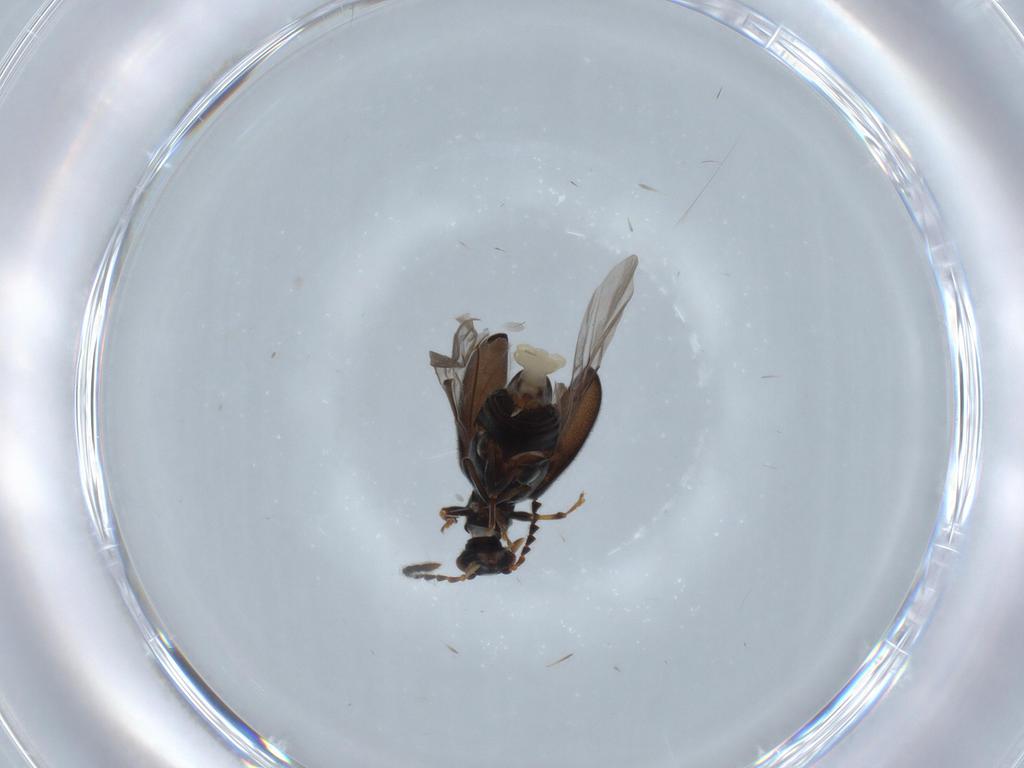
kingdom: Animalia
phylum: Arthropoda
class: Insecta
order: Coleoptera
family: Aderidae
